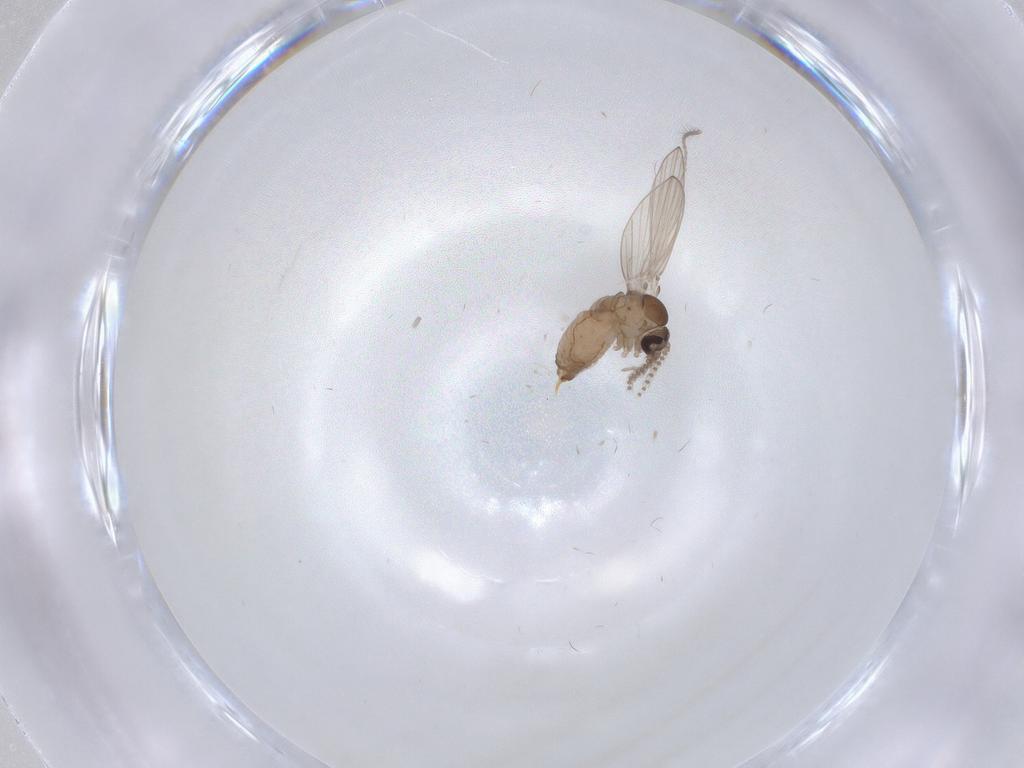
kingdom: Animalia
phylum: Arthropoda
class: Insecta
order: Diptera
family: Psychodidae
